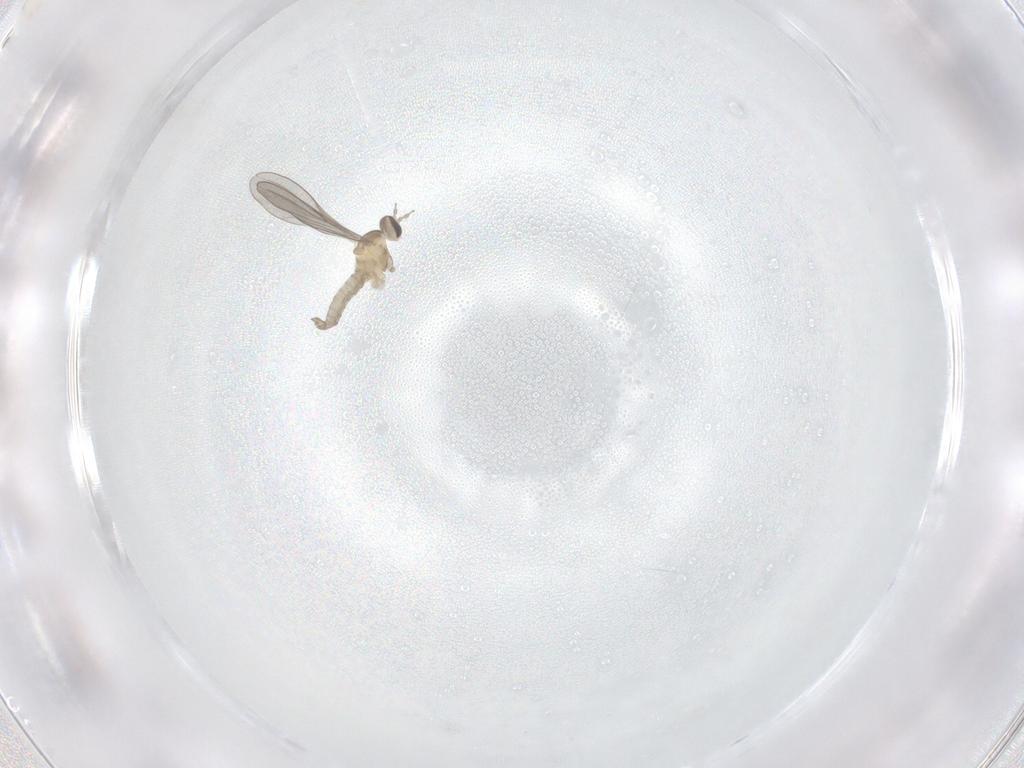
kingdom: Animalia
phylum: Arthropoda
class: Insecta
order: Diptera
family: Cecidomyiidae
